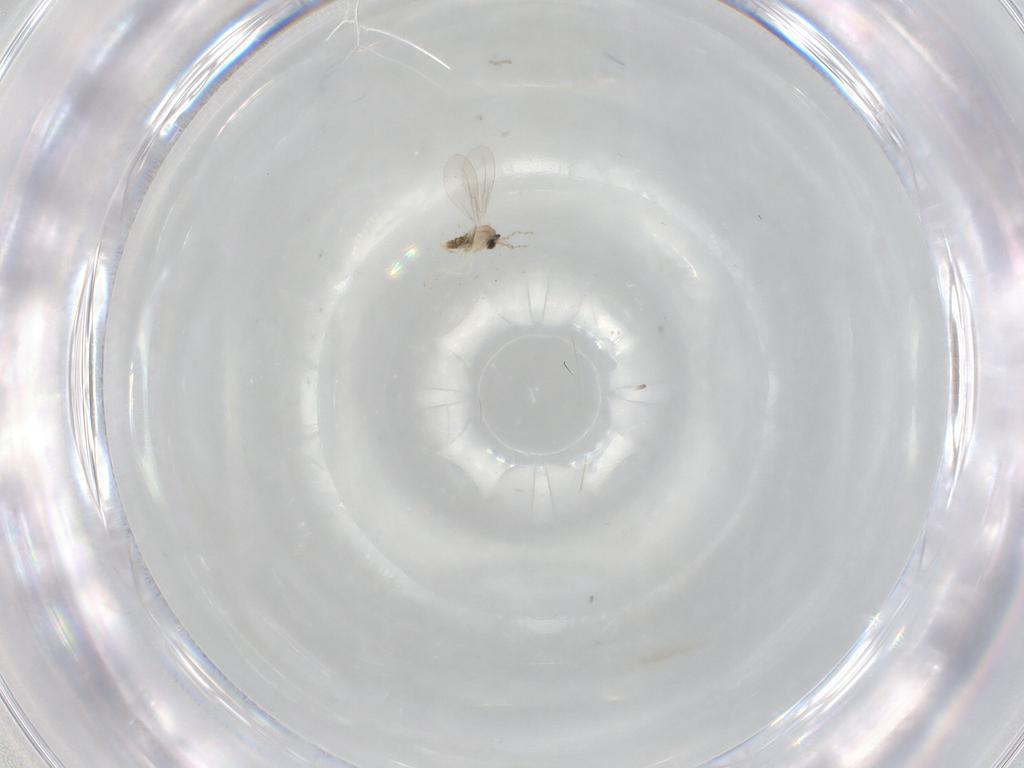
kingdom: Animalia
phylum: Arthropoda
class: Insecta
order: Diptera
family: Cecidomyiidae
